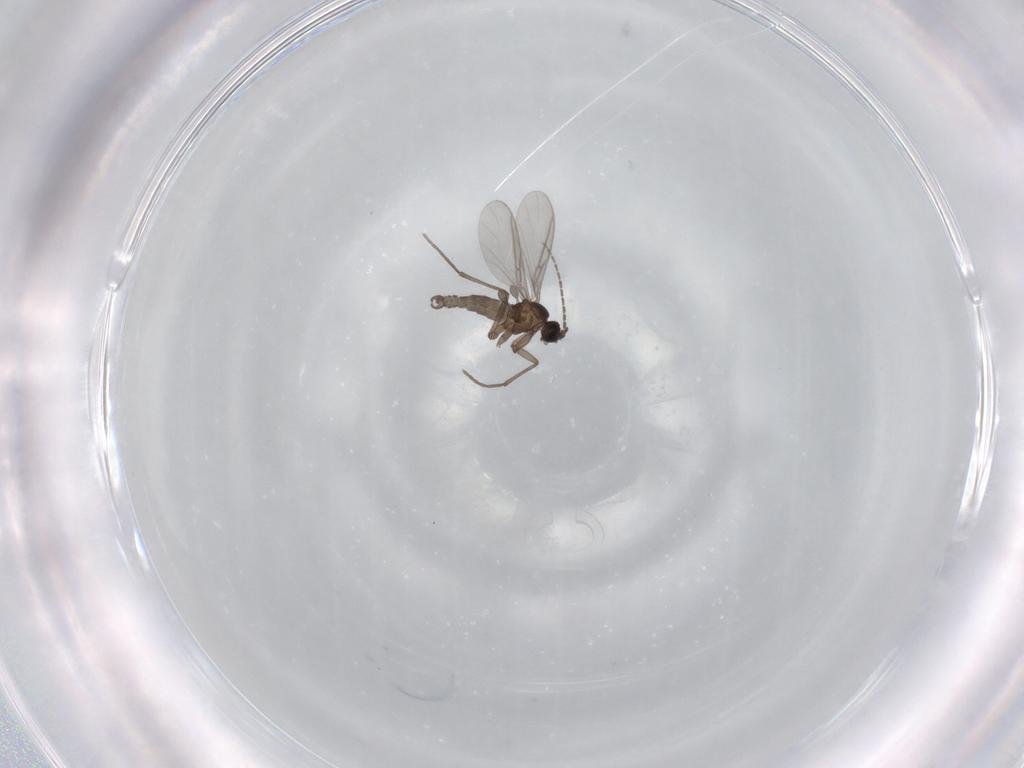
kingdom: Animalia
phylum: Arthropoda
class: Insecta
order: Diptera
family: Sciaridae
